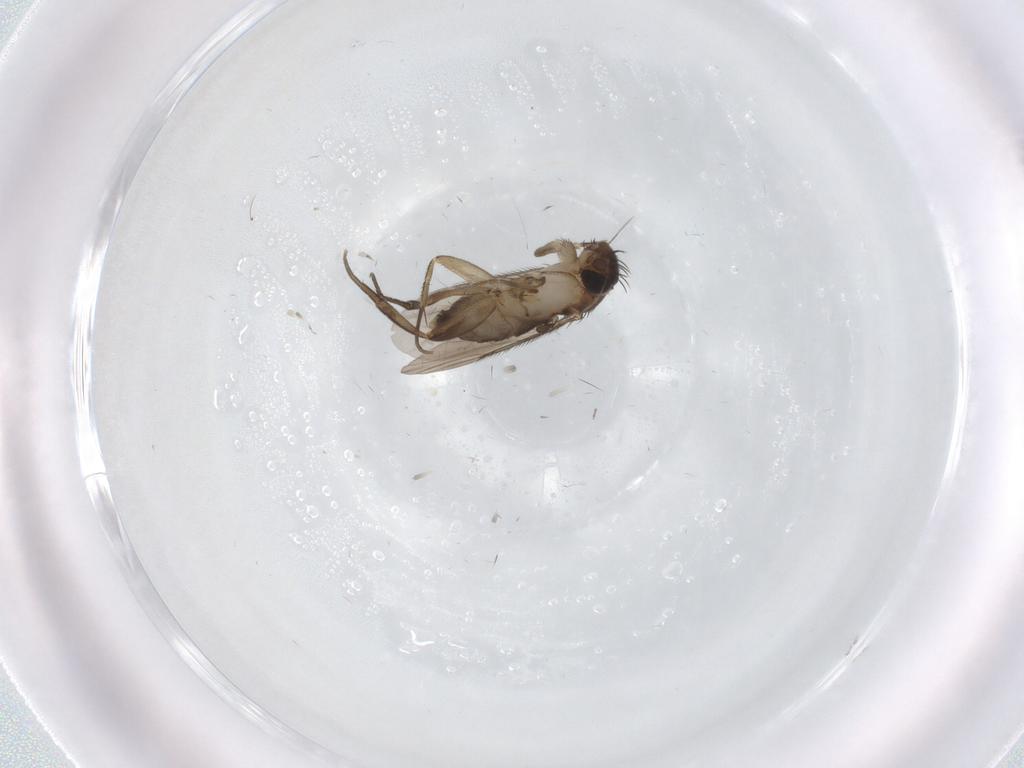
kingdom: Animalia
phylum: Arthropoda
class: Insecta
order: Diptera
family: Phoridae
